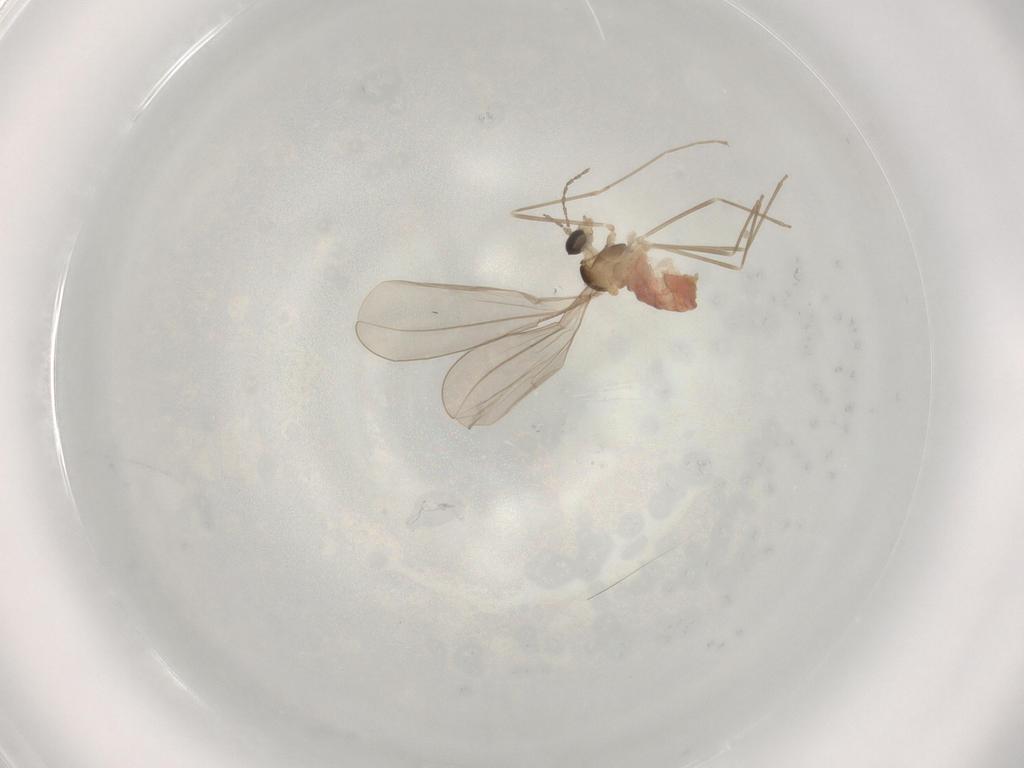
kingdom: Animalia
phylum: Arthropoda
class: Insecta
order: Diptera
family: Cecidomyiidae
